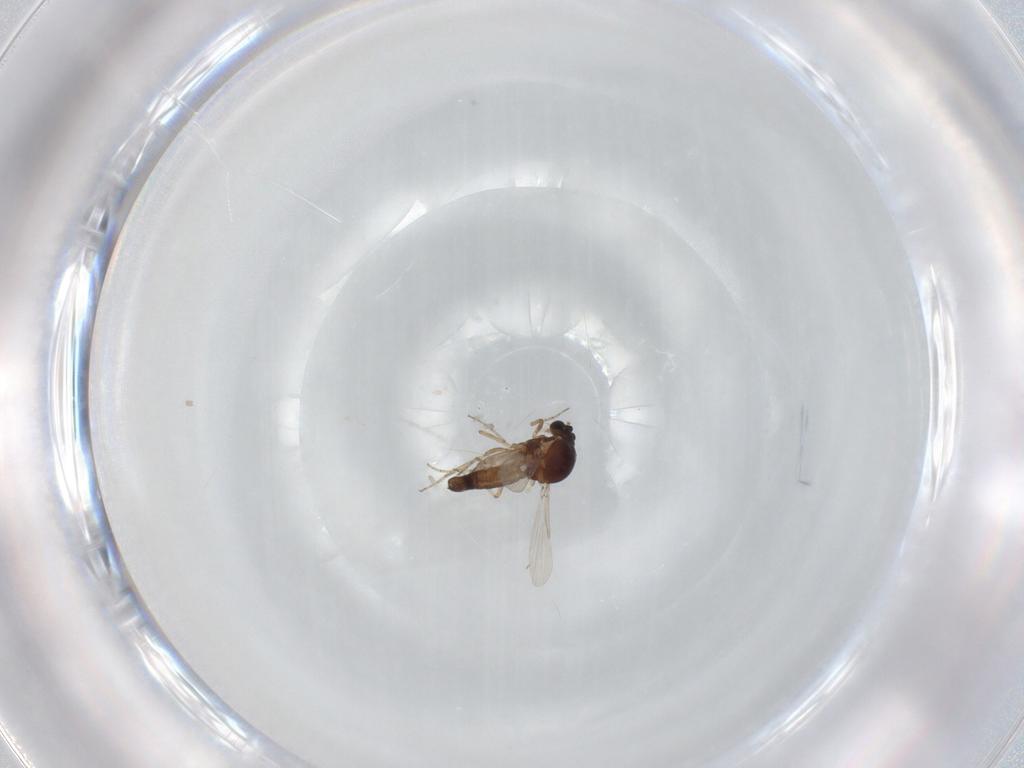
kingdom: Animalia
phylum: Arthropoda
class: Insecta
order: Diptera
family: Ceratopogonidae
